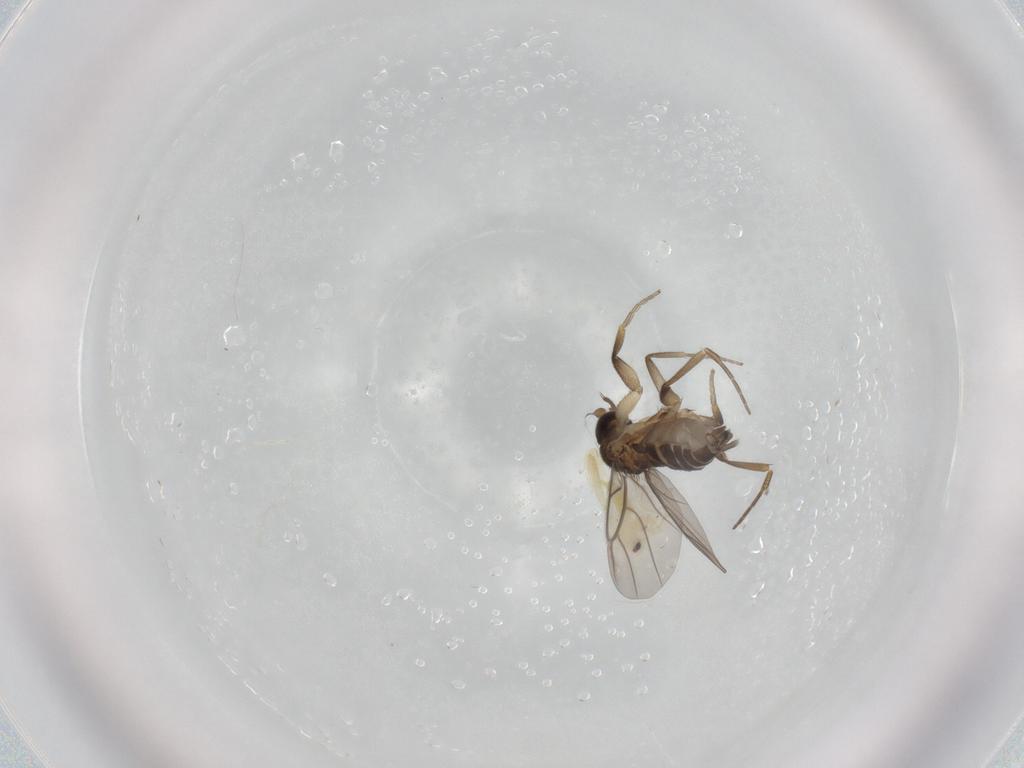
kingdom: Animalia
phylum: Arthropoda
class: Insecta
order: Diptera
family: Phoridae
